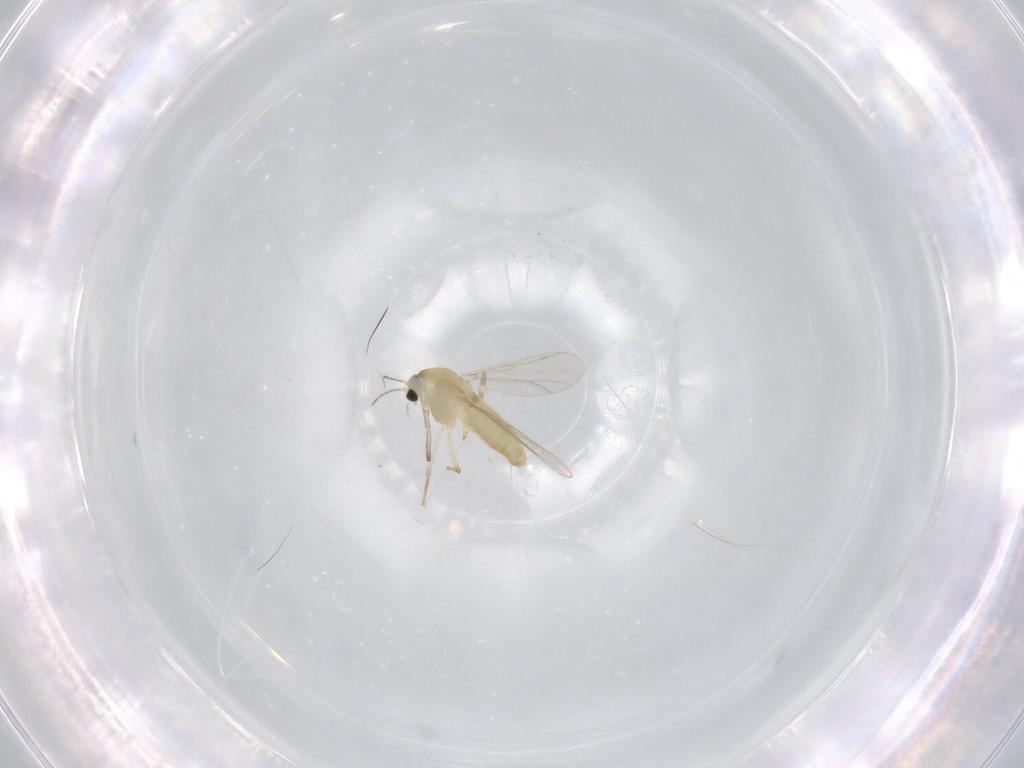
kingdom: Animalia
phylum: Arthropoda
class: Insecta
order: Diptera
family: Chironomidae
